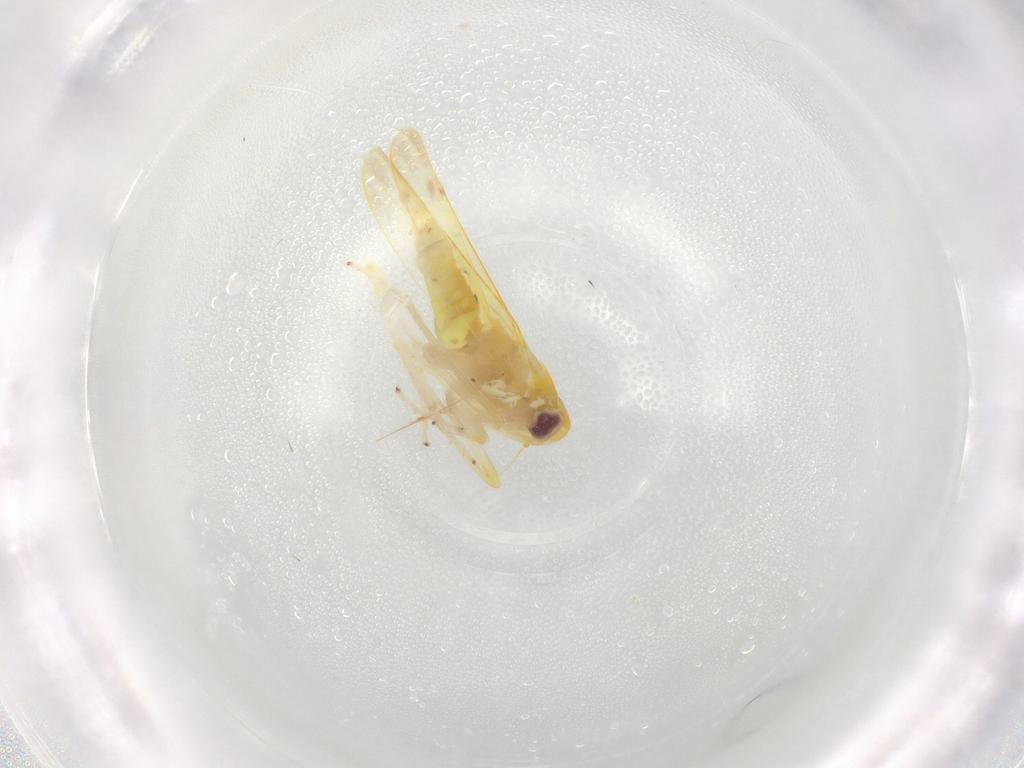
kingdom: Animalia
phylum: Arthropoda
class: Insecta
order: Hemiptera
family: Cicadellidae
